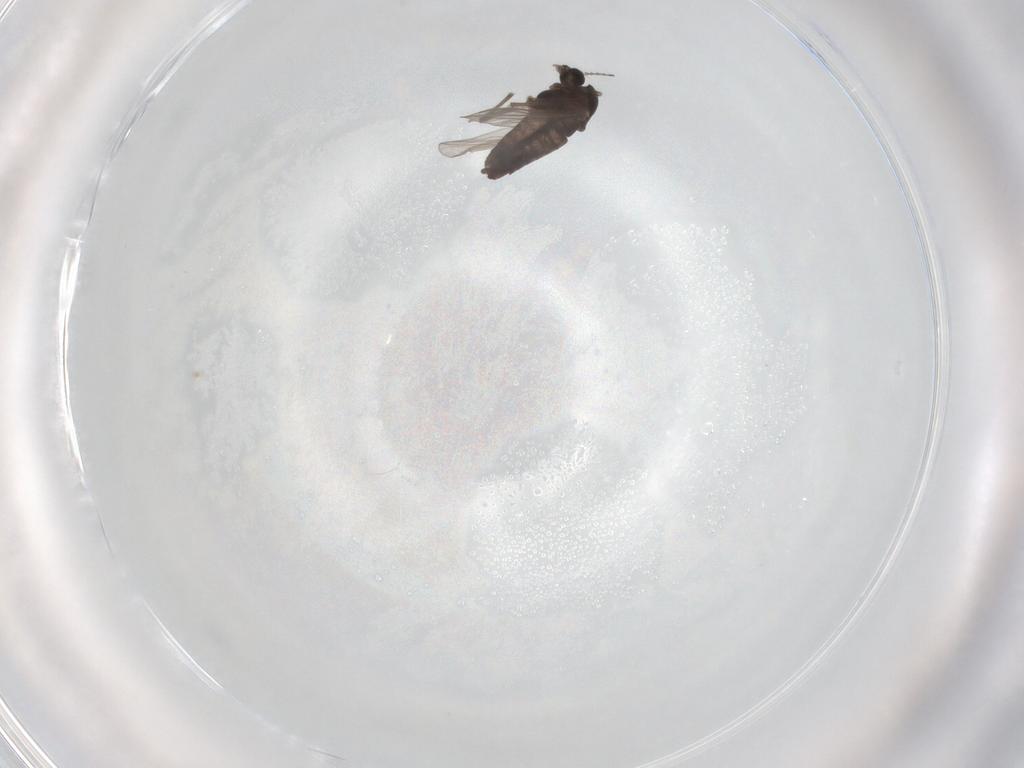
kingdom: Animalia
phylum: Arthropoda
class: Insecta
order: Diptera
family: Chironomidae
